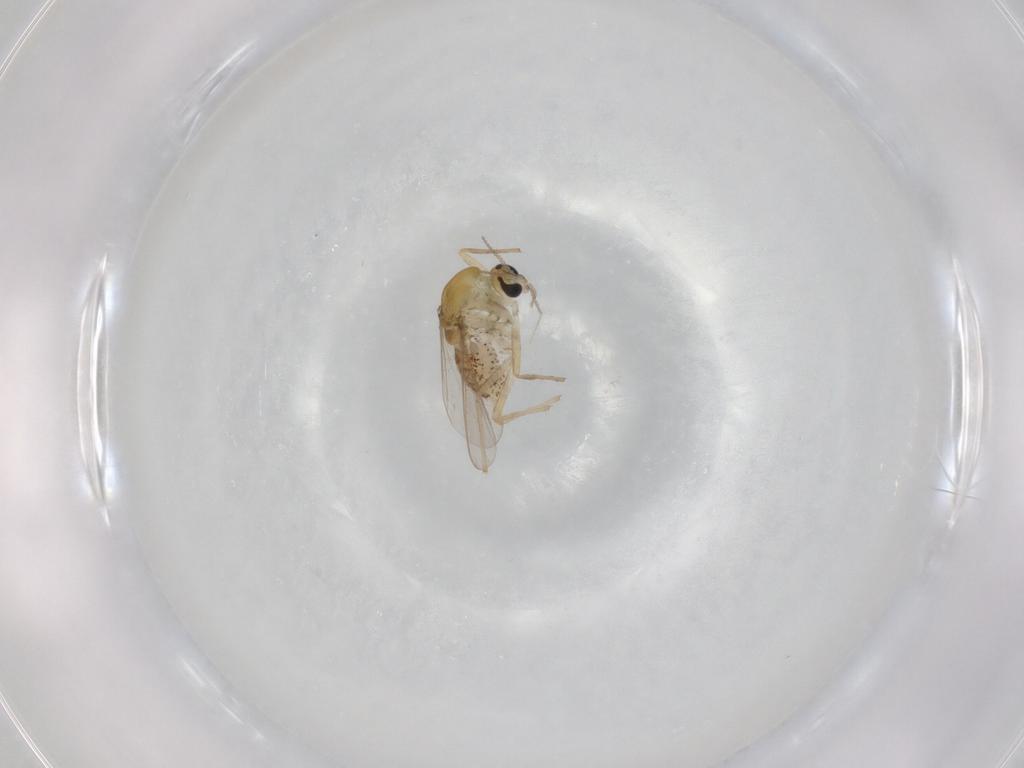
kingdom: Animalia
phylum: Arthropoda
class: Insecta
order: Diptera
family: Chironomidae
